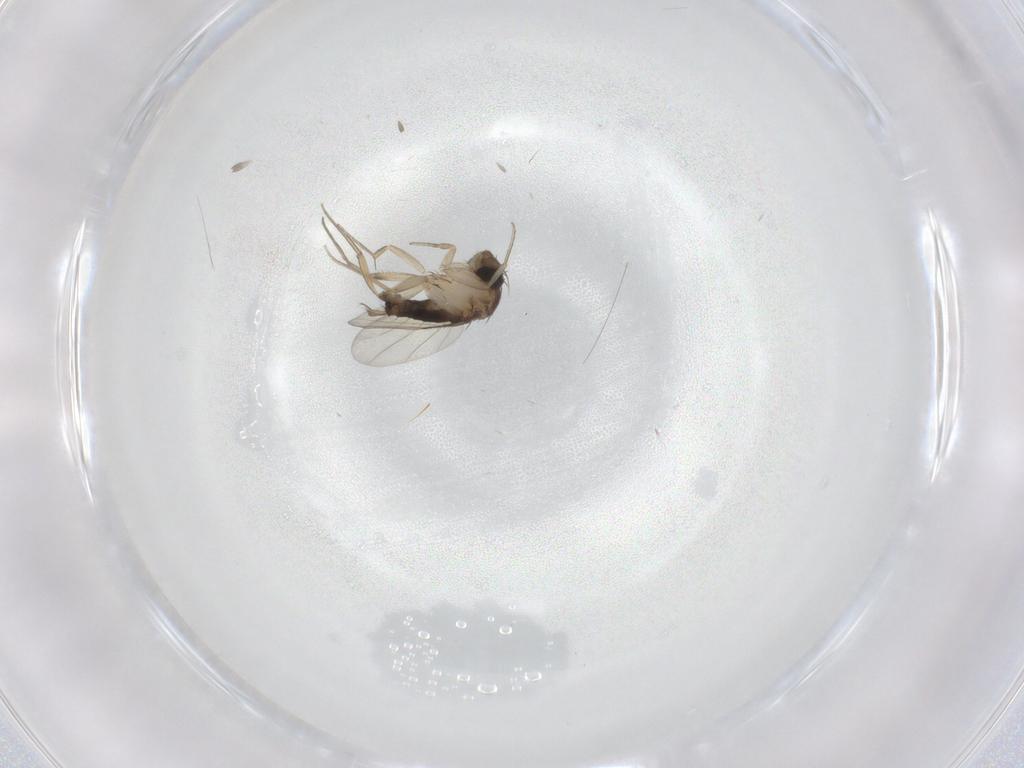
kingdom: Animalia
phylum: Arthropoda
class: Insecta
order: Diptera
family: Phoridae
